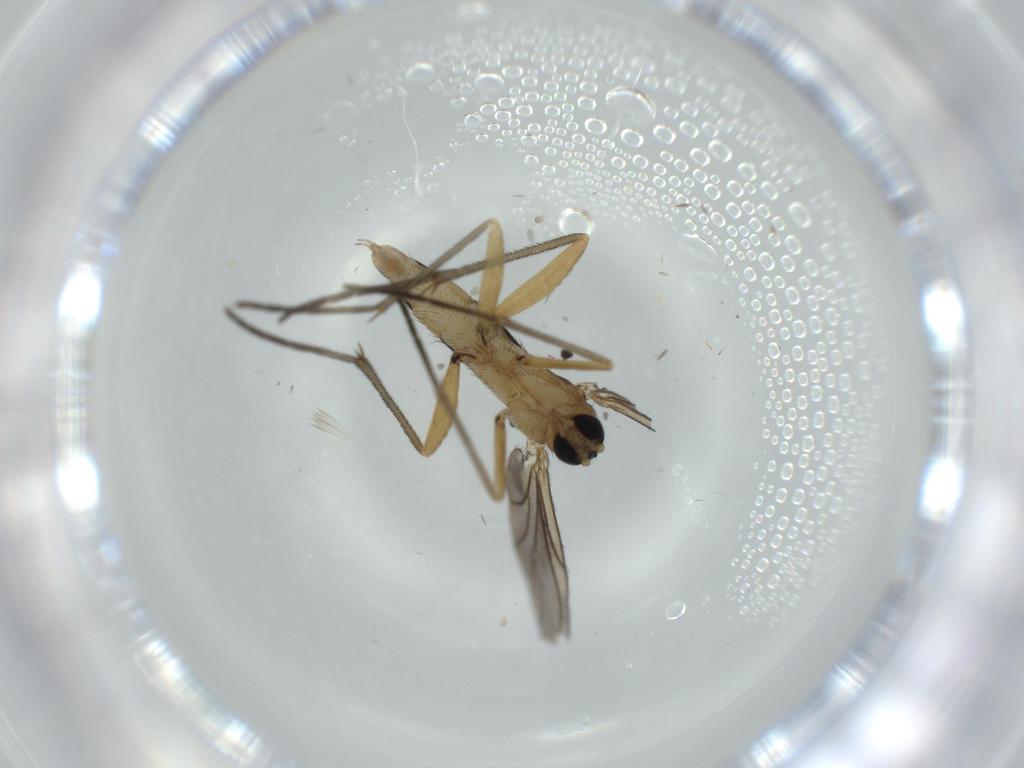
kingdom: Animalia
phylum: Arthropoda
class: Insecta
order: Diptera
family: Sciaridae
